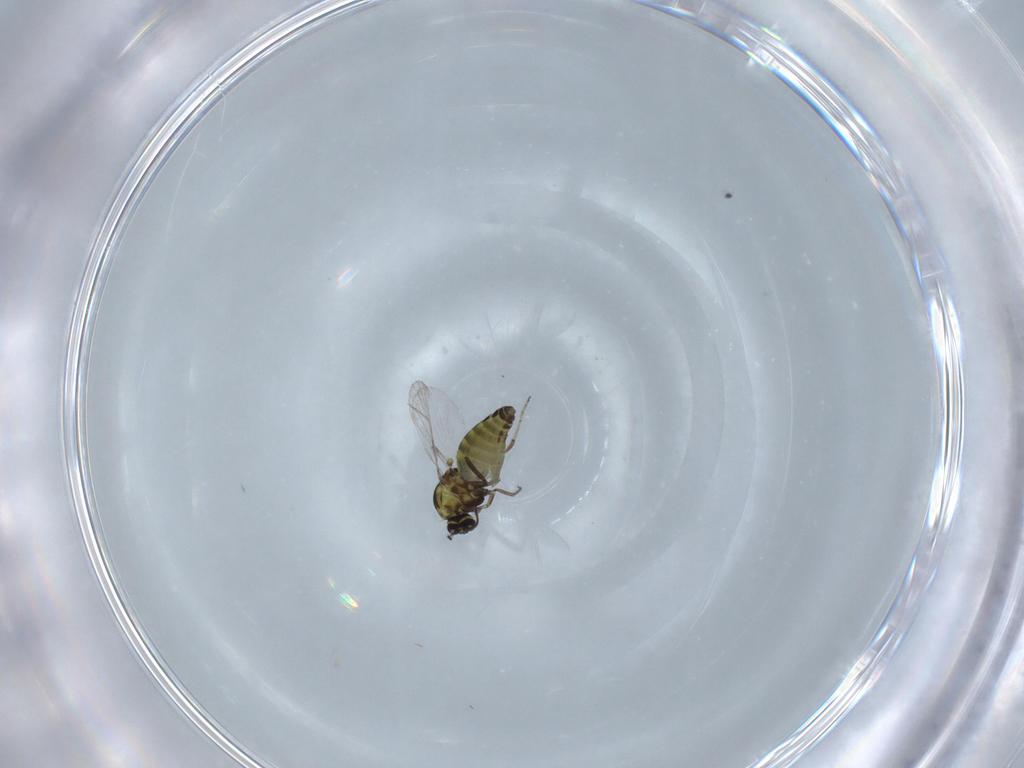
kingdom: Animalia
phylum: Arthropoda
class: Insecta
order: Diptera
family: Ceratopogonidae
